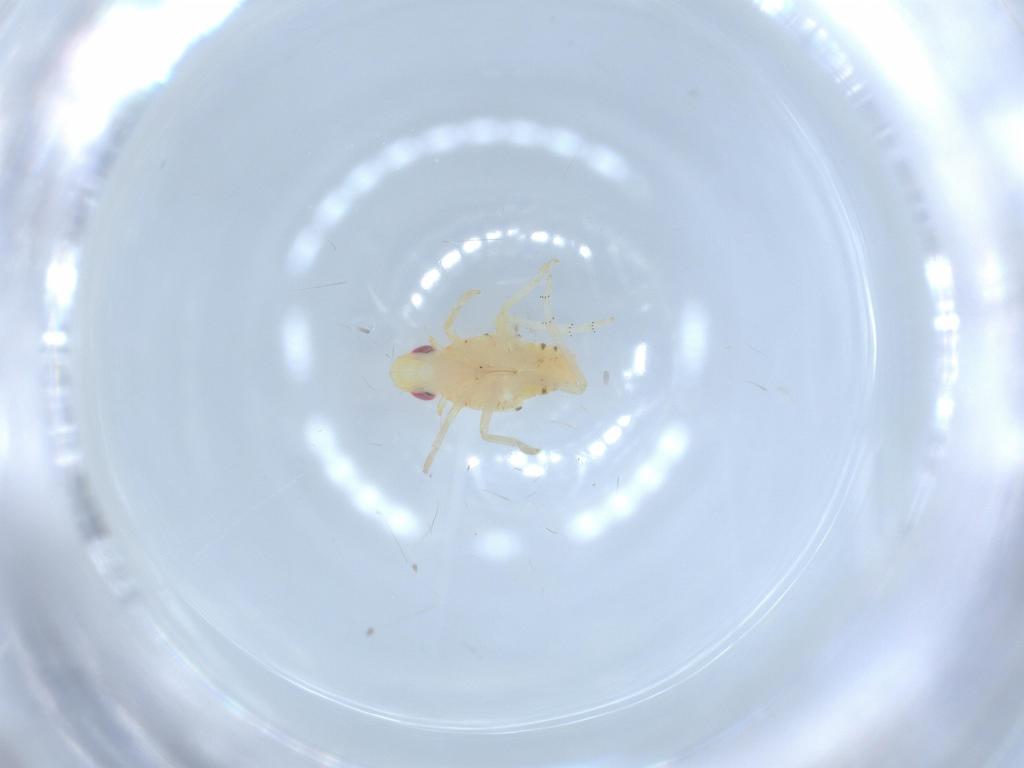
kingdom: Animalia
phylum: Arthropoda
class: Insecta
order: Hemiptera
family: Tropiduchidae
